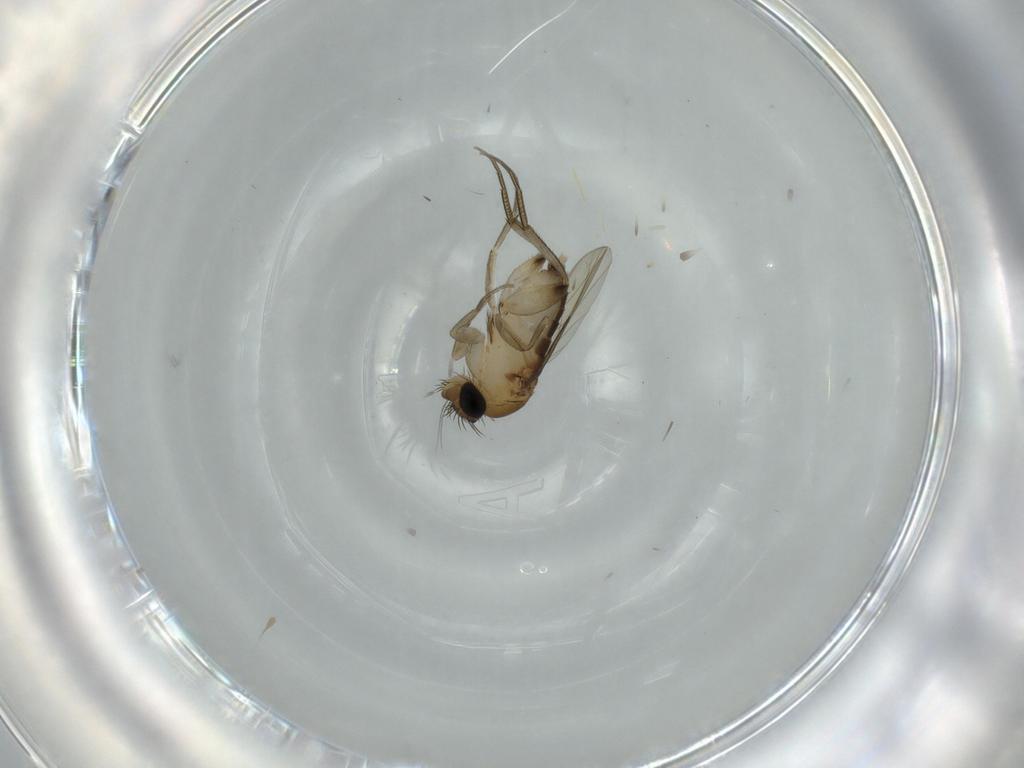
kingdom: Animalia
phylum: Arthropoda
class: Insecta
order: Diptera
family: Phoridae
